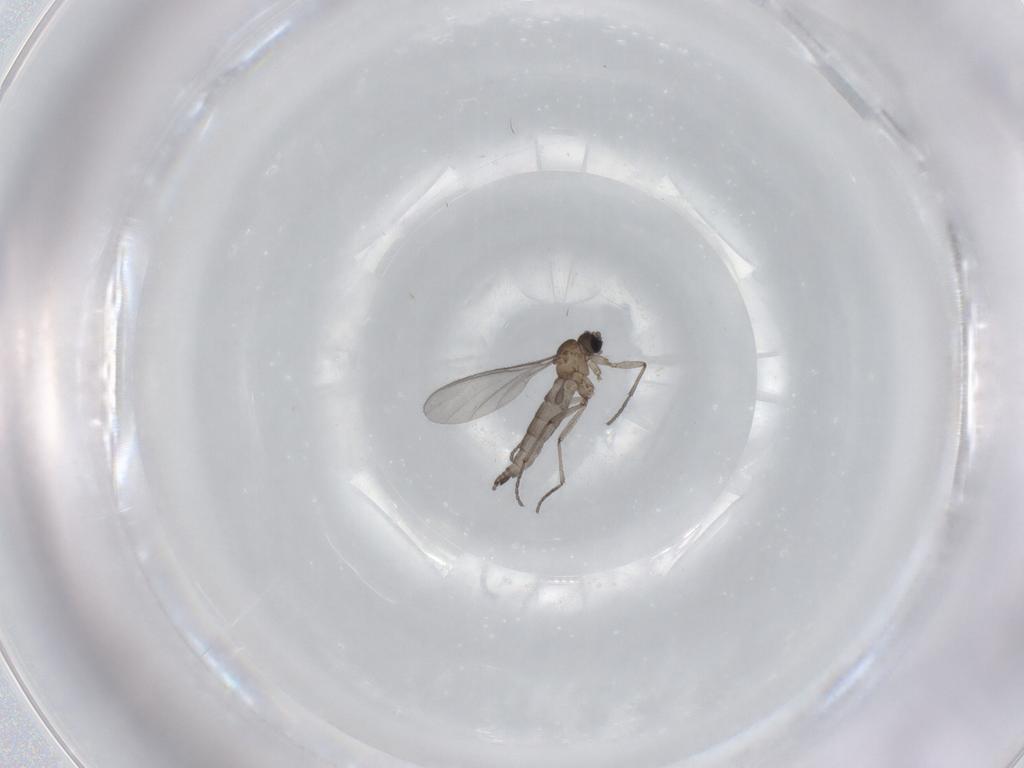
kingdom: Animalia
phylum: Arthropoda
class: Insecta
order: Diptera
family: Sciaridae
